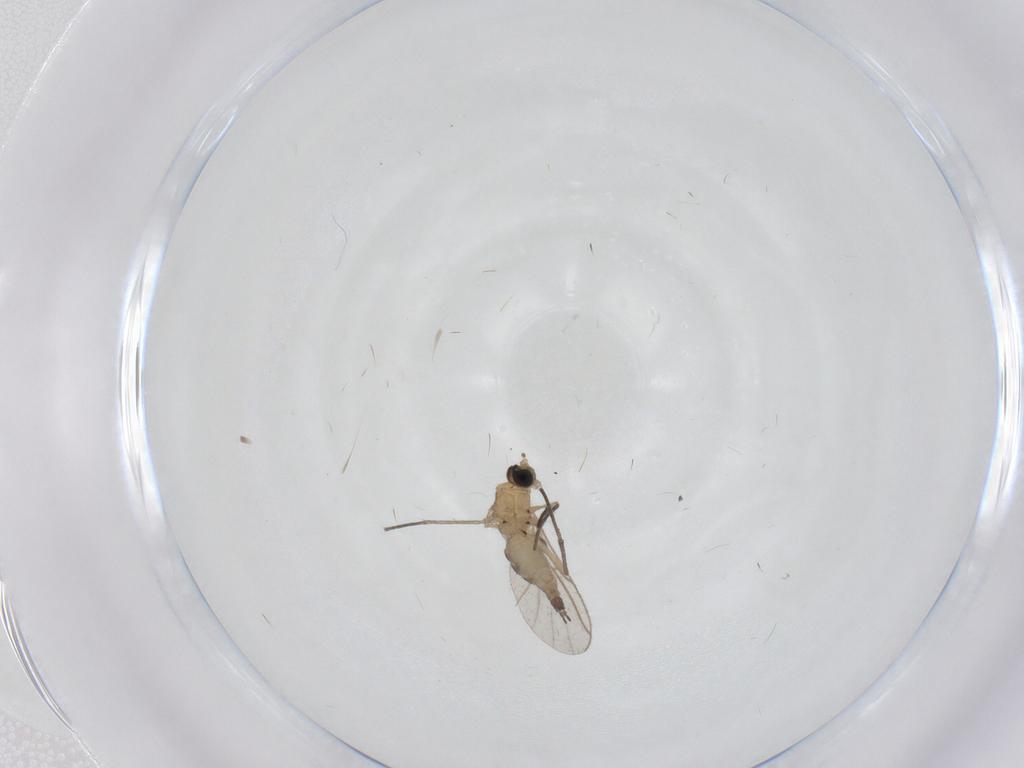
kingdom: Animalia
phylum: Arthropoda
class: Insecta
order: Diptera
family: Sciaridae
